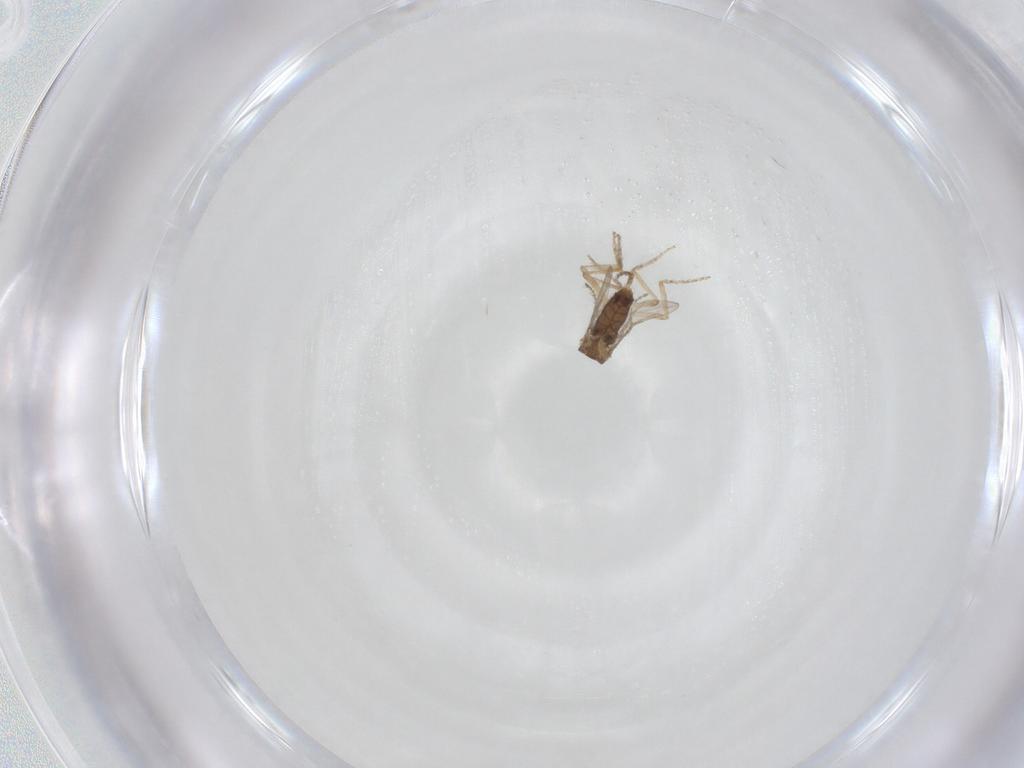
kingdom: Animalia
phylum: Arthropoda
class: Insecta
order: Diptera
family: Ceratopogonidae
